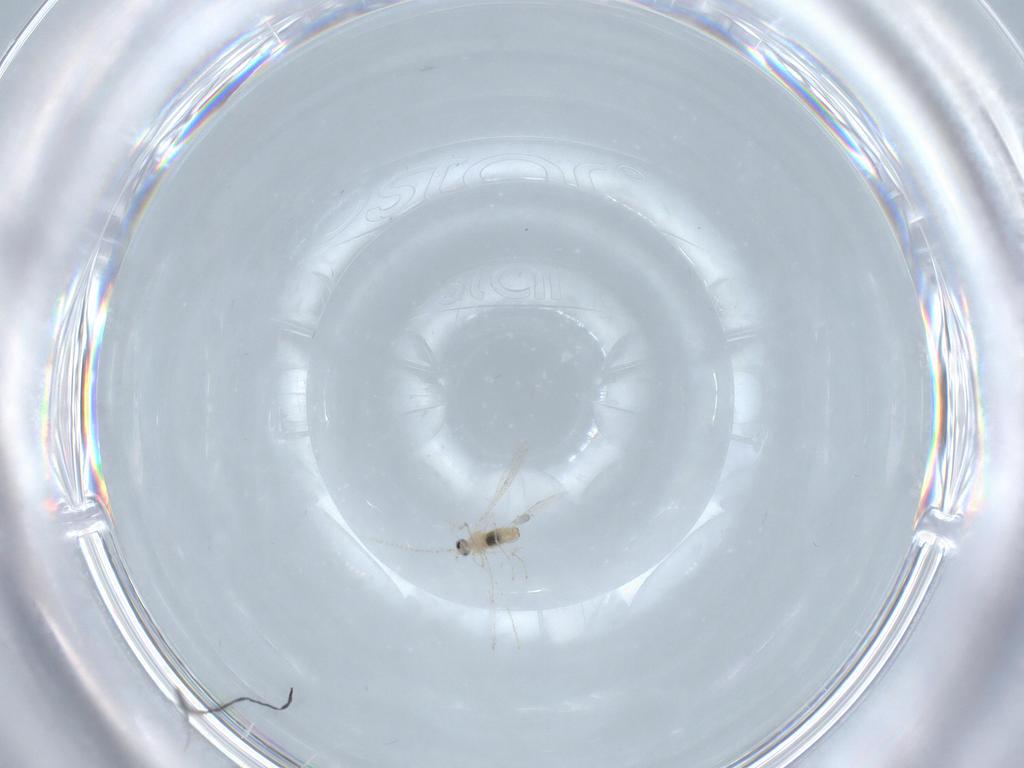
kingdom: Animalia
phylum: Arthropoda
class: Insecta
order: Diptera
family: Cecidomyiidae
